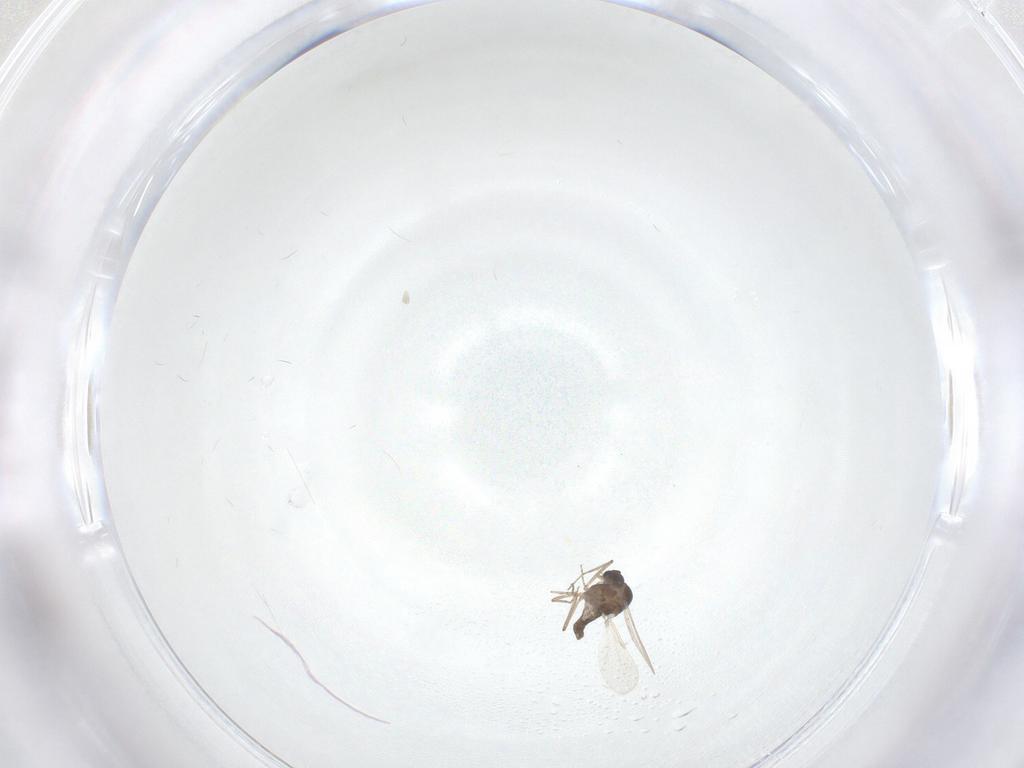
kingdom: Animalia
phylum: Arthropoda
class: Insecta
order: Diptera
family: Ceratopogonidae
